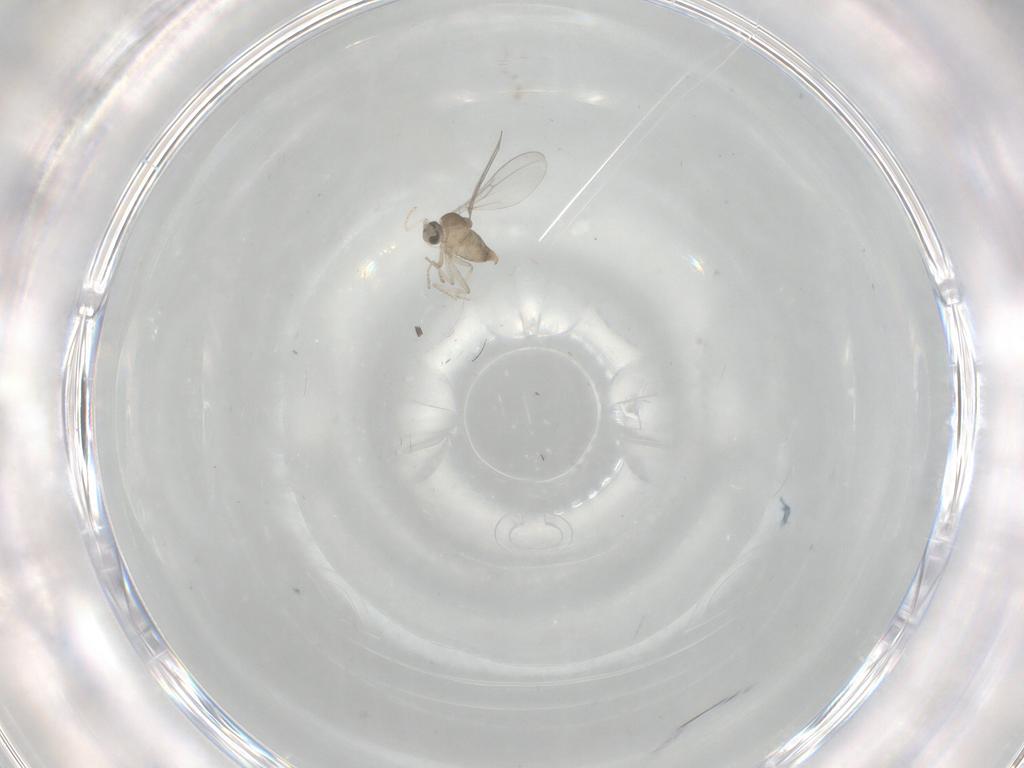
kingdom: Animalia
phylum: Arthropoda
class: Insecta
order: Diptera
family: Cecidomyiidae
